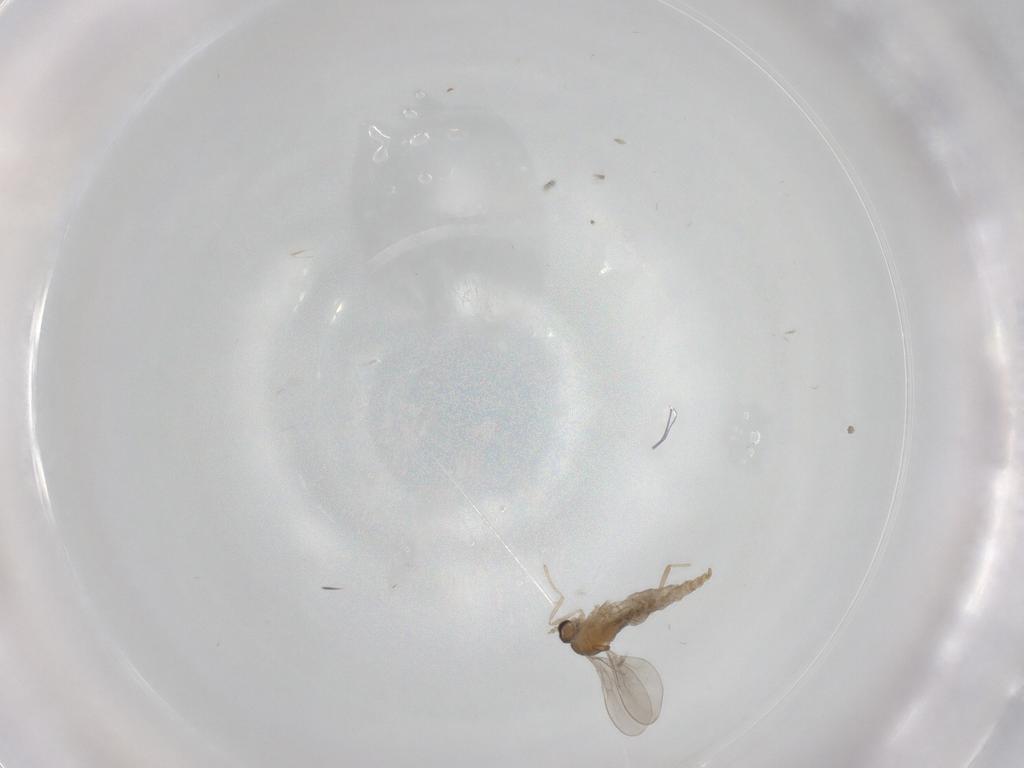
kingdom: Animalia
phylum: Arthropoda
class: Insecta
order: Diptera
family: Cecidomyiidae
